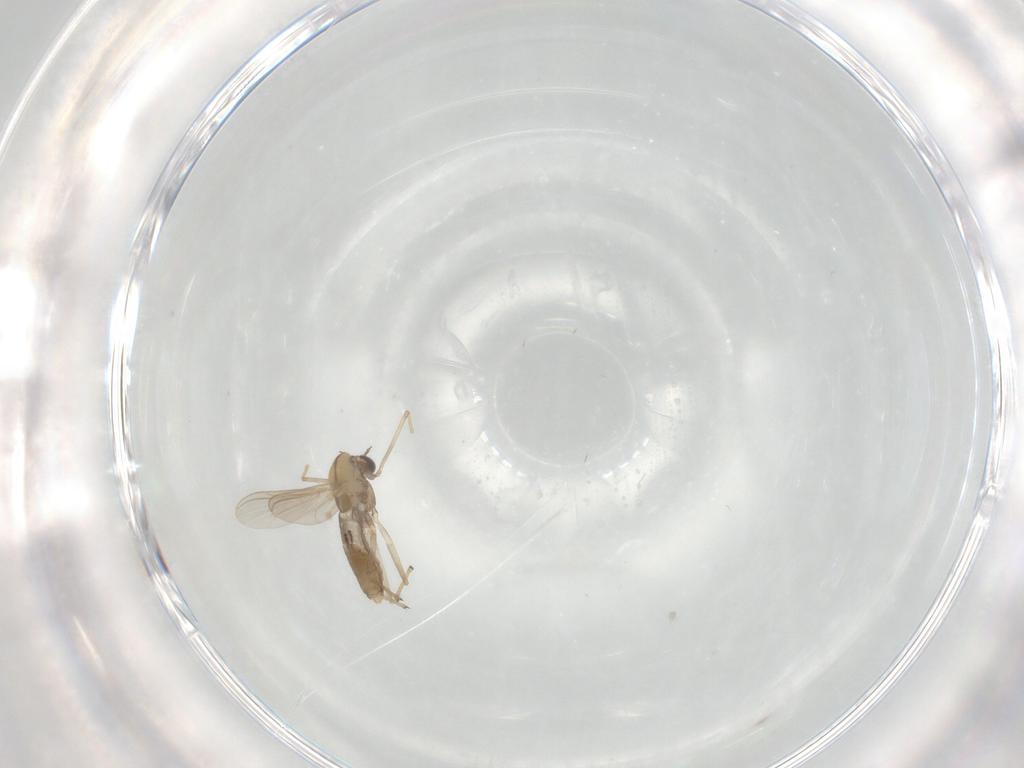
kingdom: Animalia
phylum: Arthropoda
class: Insecta
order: Diptera
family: Chironomidae
